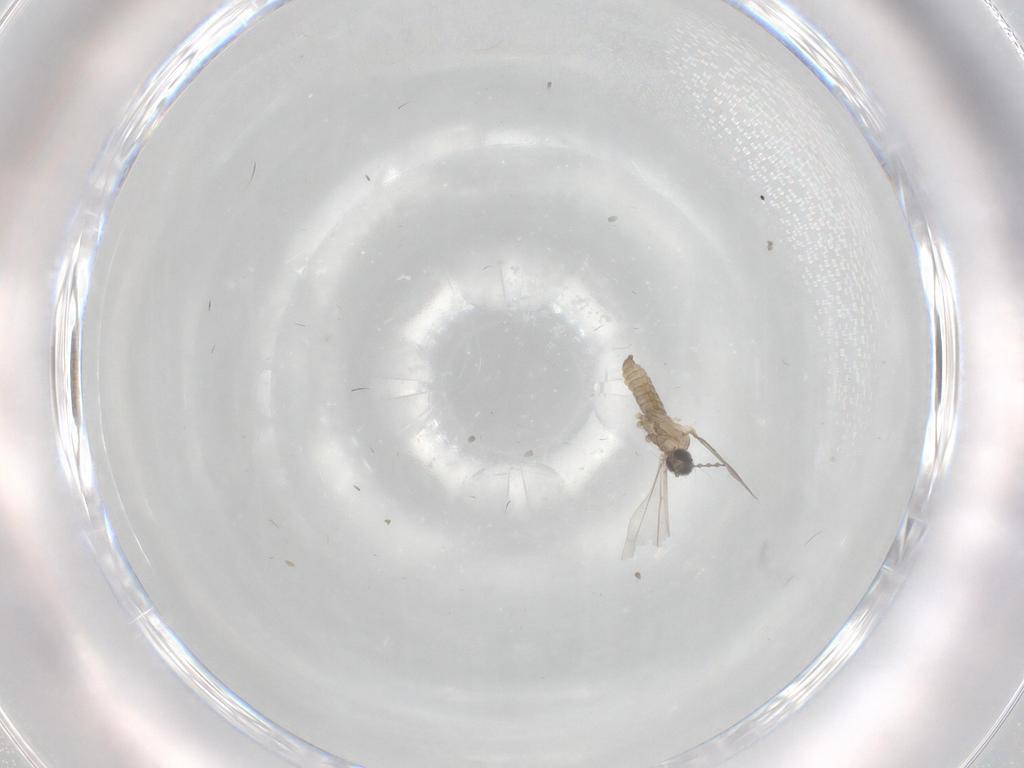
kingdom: Animalia
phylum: Arthropoda
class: Insecta
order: Diptera
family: Cecidomyiidae
